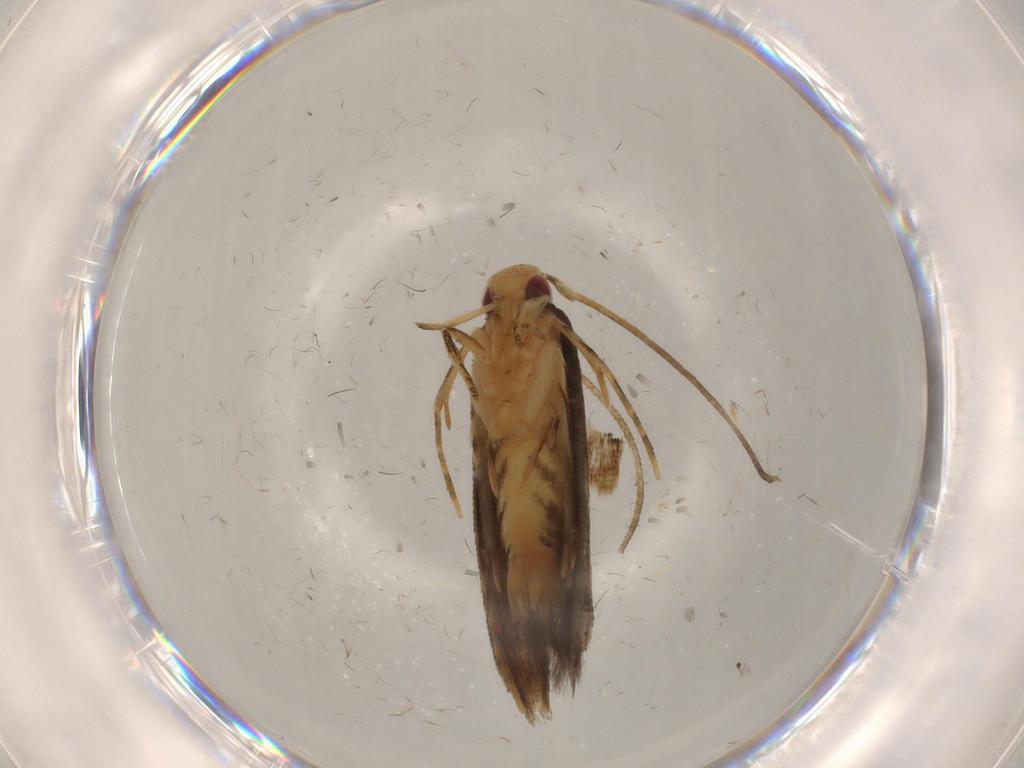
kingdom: Animalia
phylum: Arthropoda
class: Insecta
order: Lepidoptera
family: Momphidae
